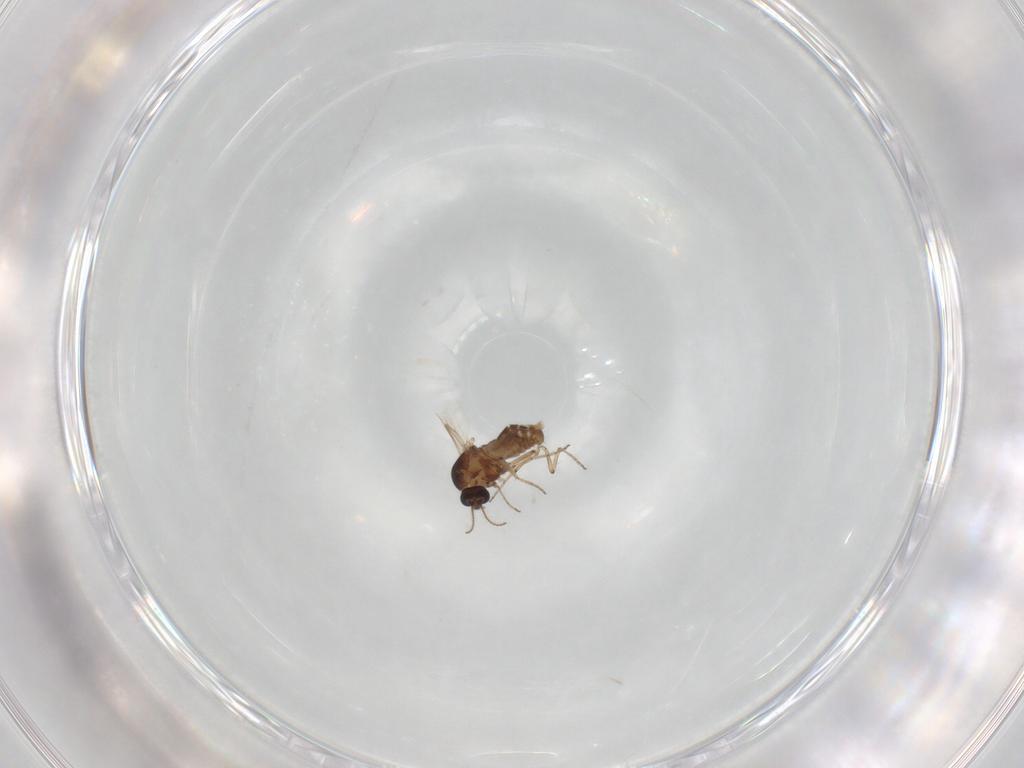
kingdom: Animalia
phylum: Arthropoda
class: Insecta
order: Diptera
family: Ceratopogonidae
